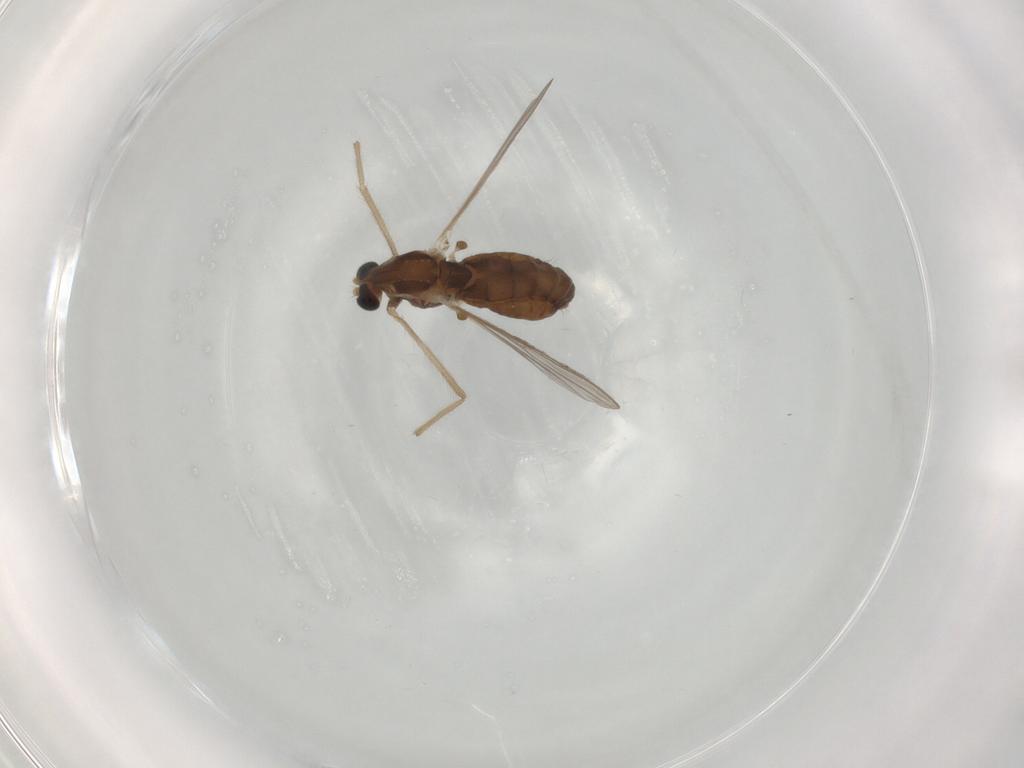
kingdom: Animalia
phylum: Arthropoda
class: Insecta
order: Diptera
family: Chironomidae
